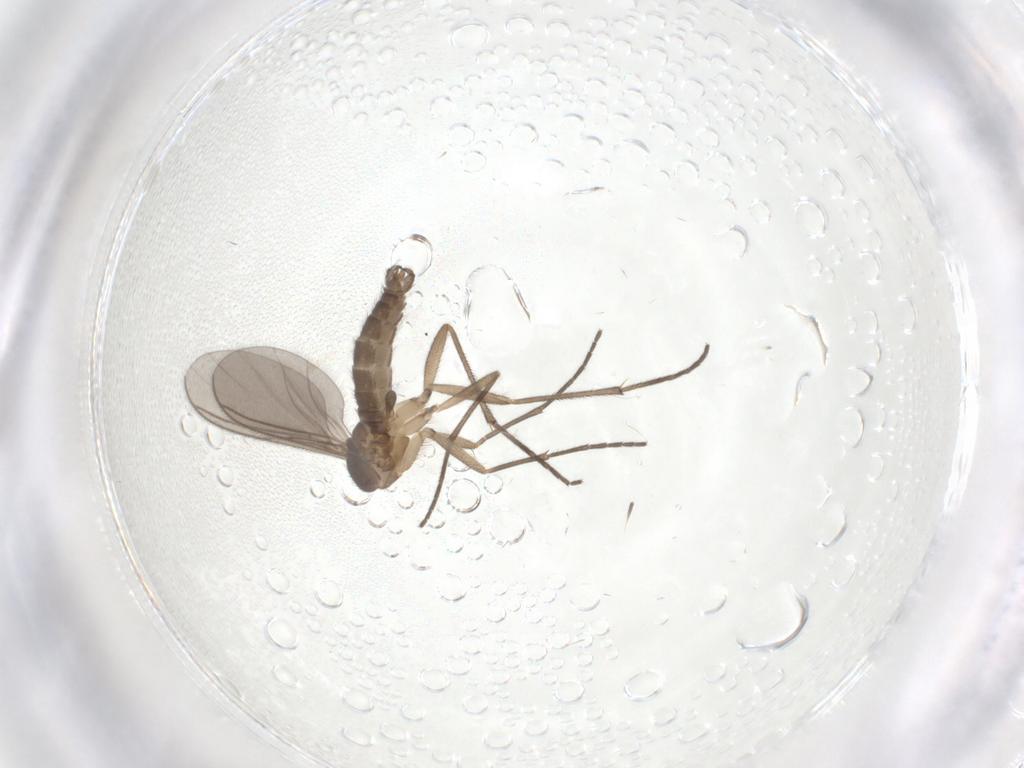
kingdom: Animalia
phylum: Arthropoda
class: Insecta
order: Diptera
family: Sciaridae
